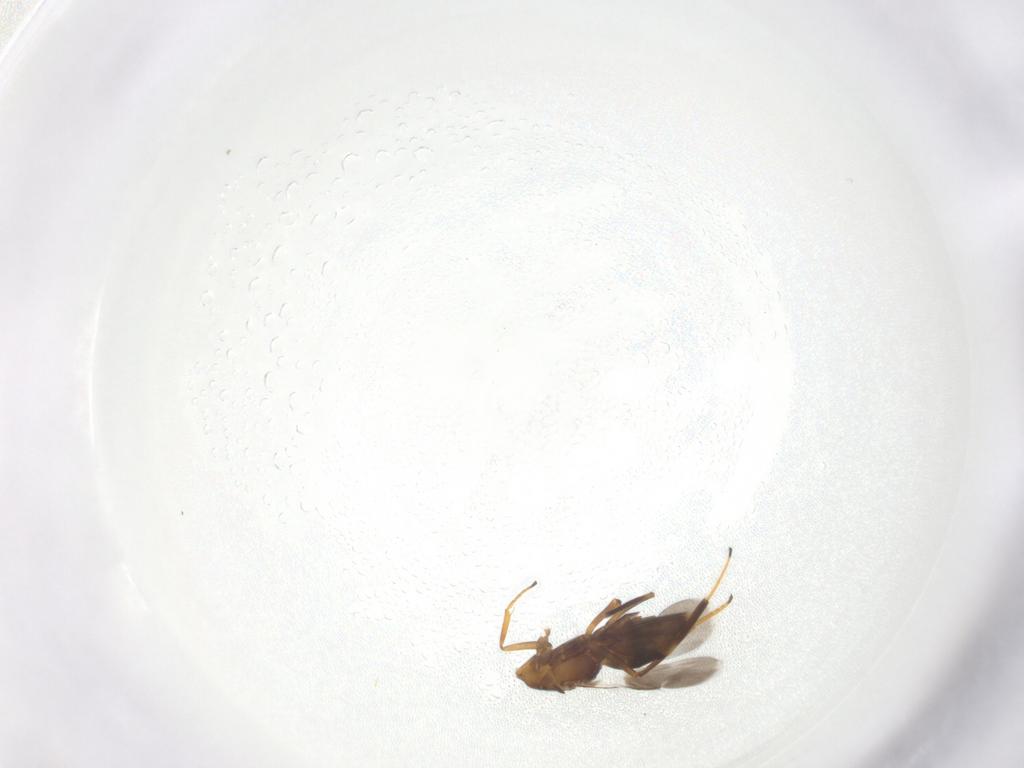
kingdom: Animalia
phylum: Arthropoda
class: Insecta
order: Hymenoptera
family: Encyrtidae
